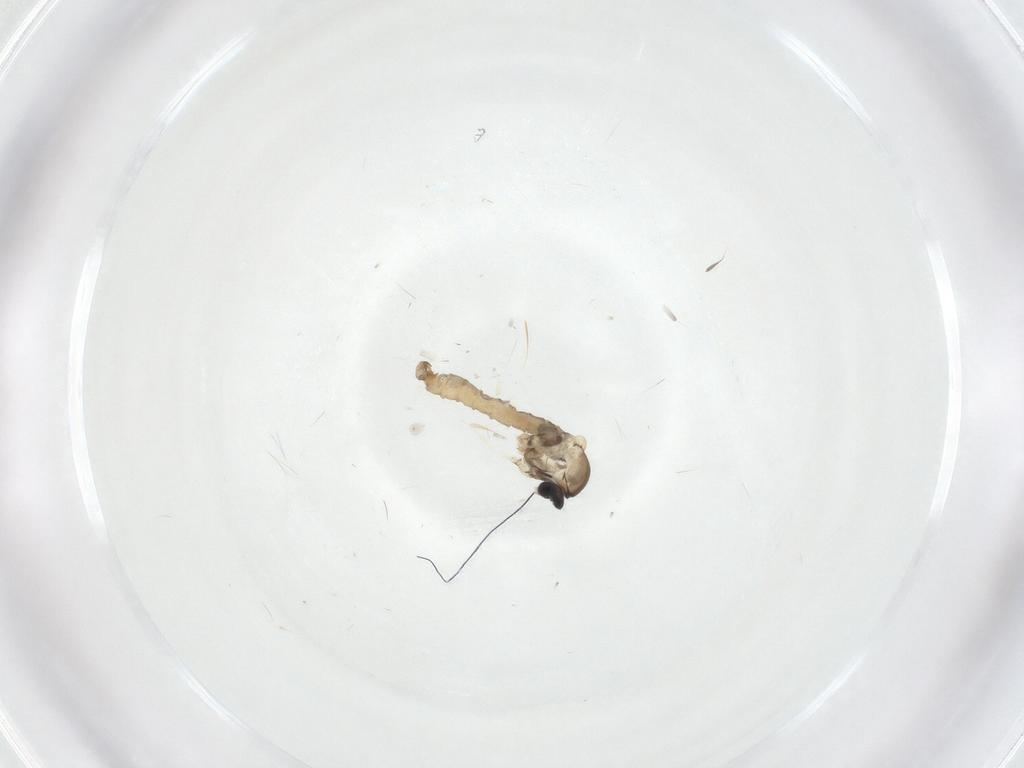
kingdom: Animalia
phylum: Arthropoda
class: Insecta
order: Diptera
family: Cecidomyiidae
